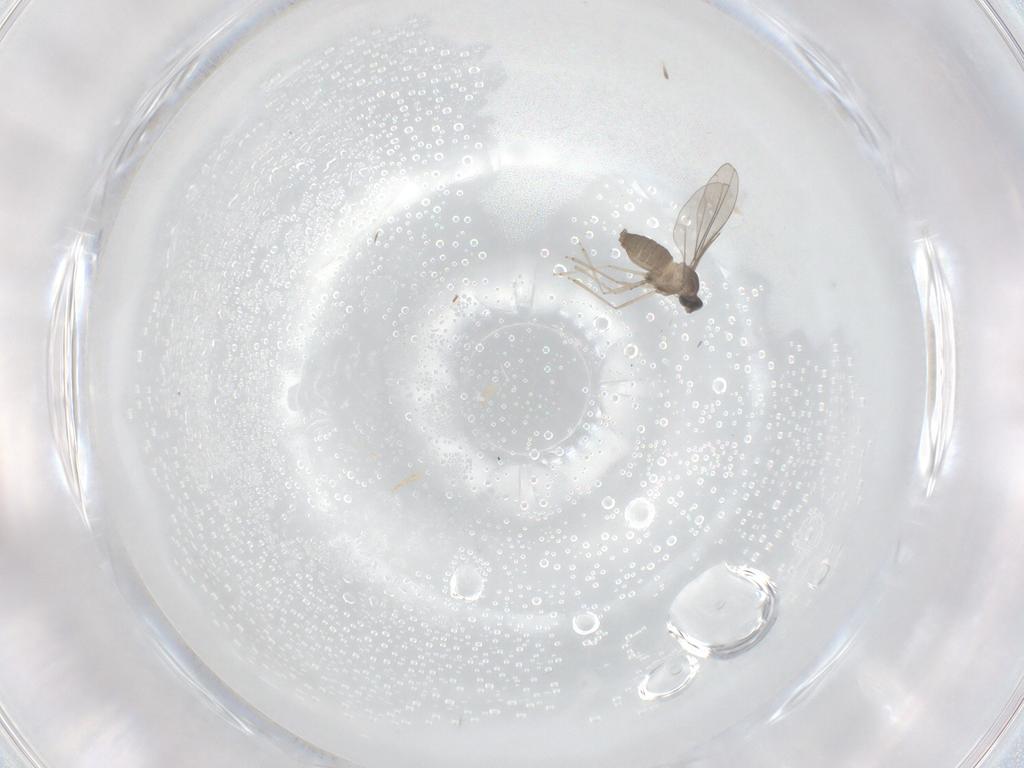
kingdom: Animalia
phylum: Arthropoda
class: Insecta
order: Diptera
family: Cecidomyiidae
